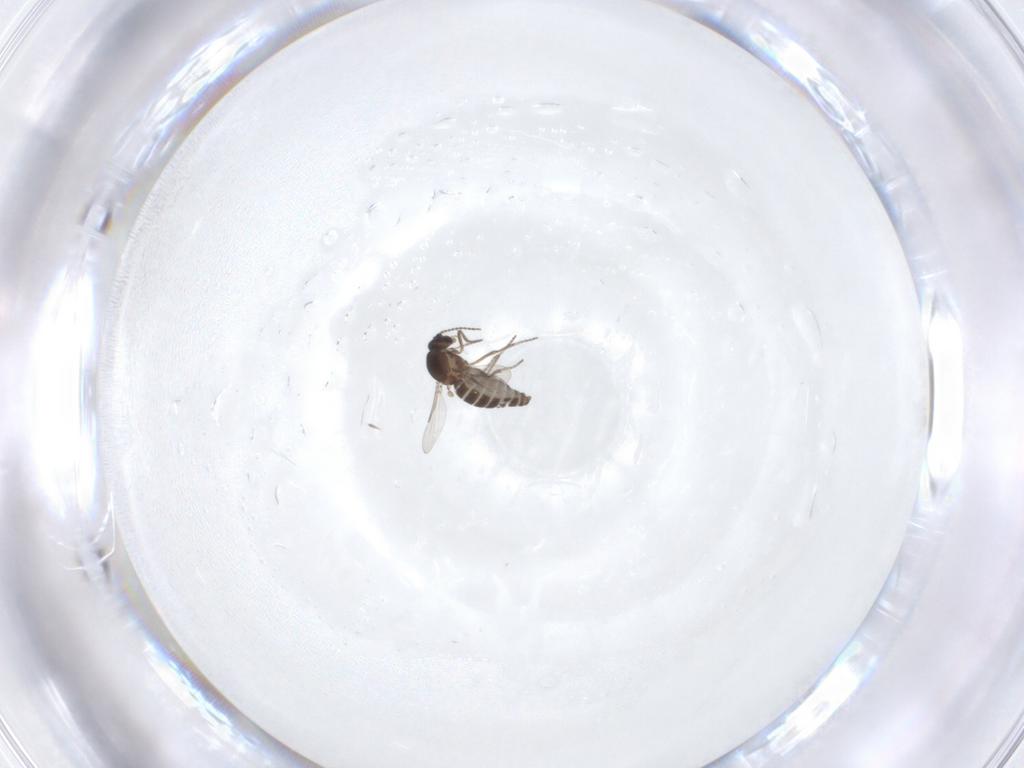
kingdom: Animalia
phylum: Arthropoda
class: Insecta
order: Diptera
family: Ceratopogonidae
